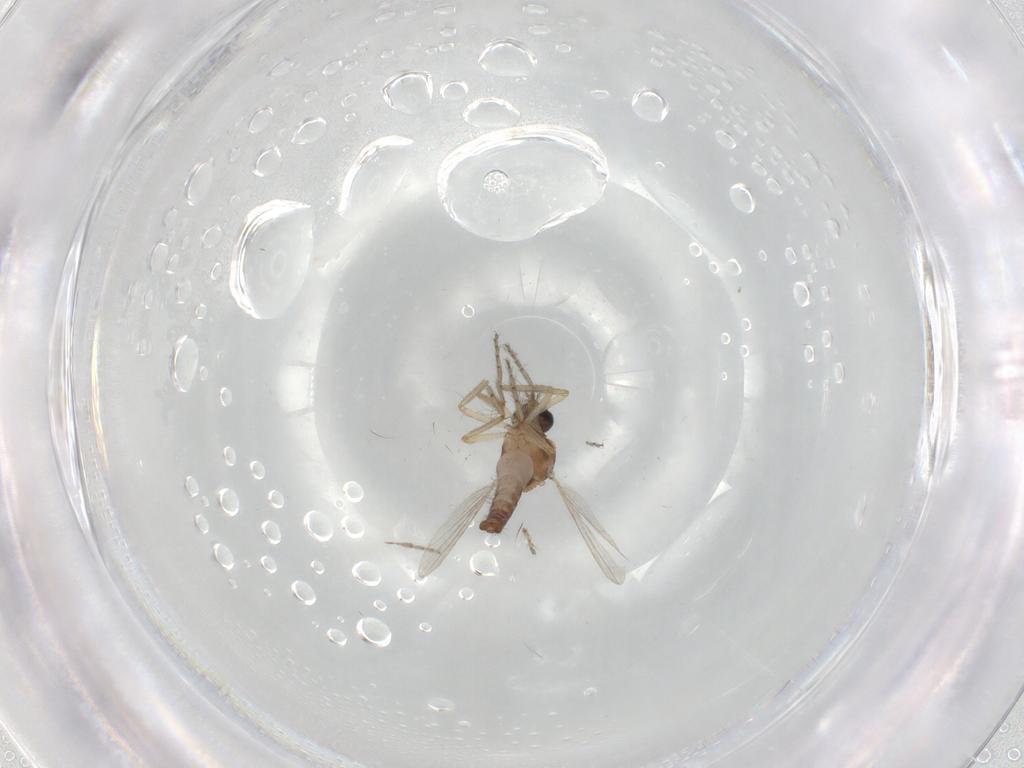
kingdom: Animalia
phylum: Arthropoda
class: Insecta
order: Diptera
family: Ceratopogonidae
